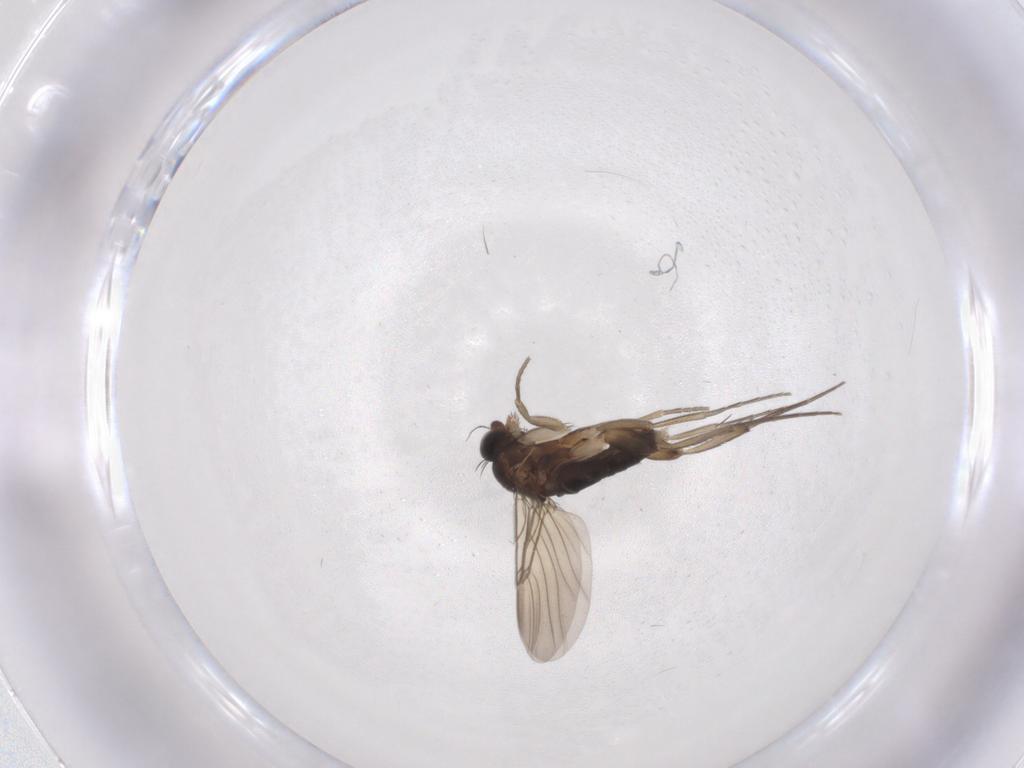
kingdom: Animalia
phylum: Arthropoda
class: Insecta
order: Diptera
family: Phoridae
